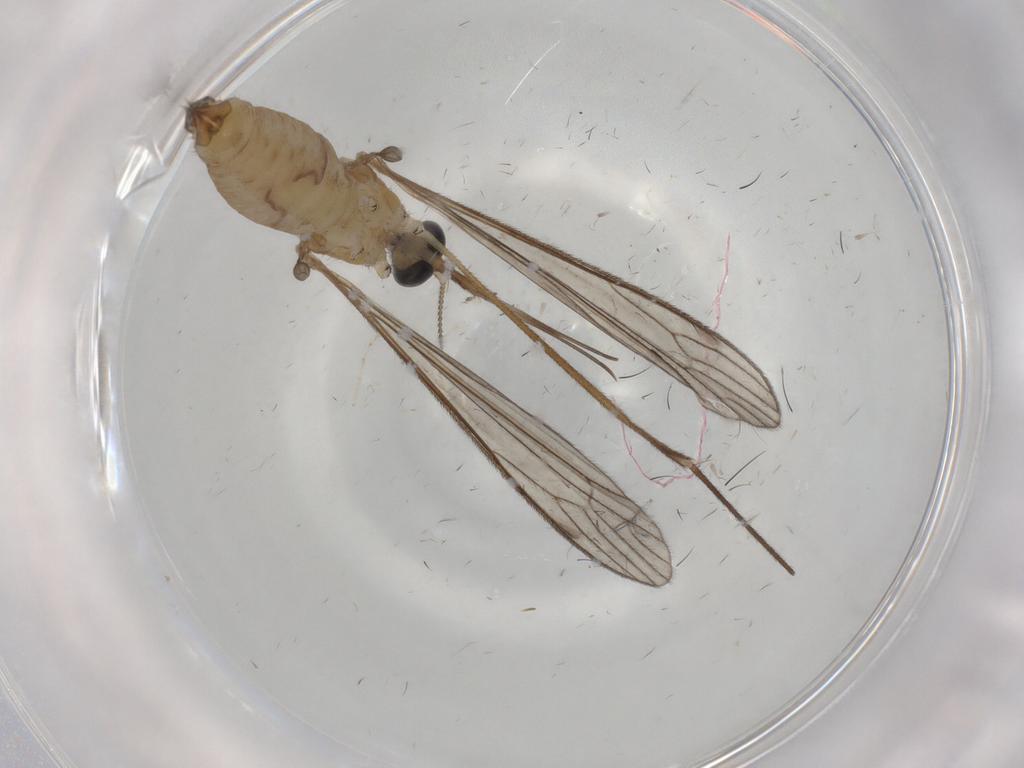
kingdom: Animalia
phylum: Arthropoda
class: Insecta
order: Diptera
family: Limoniidae
